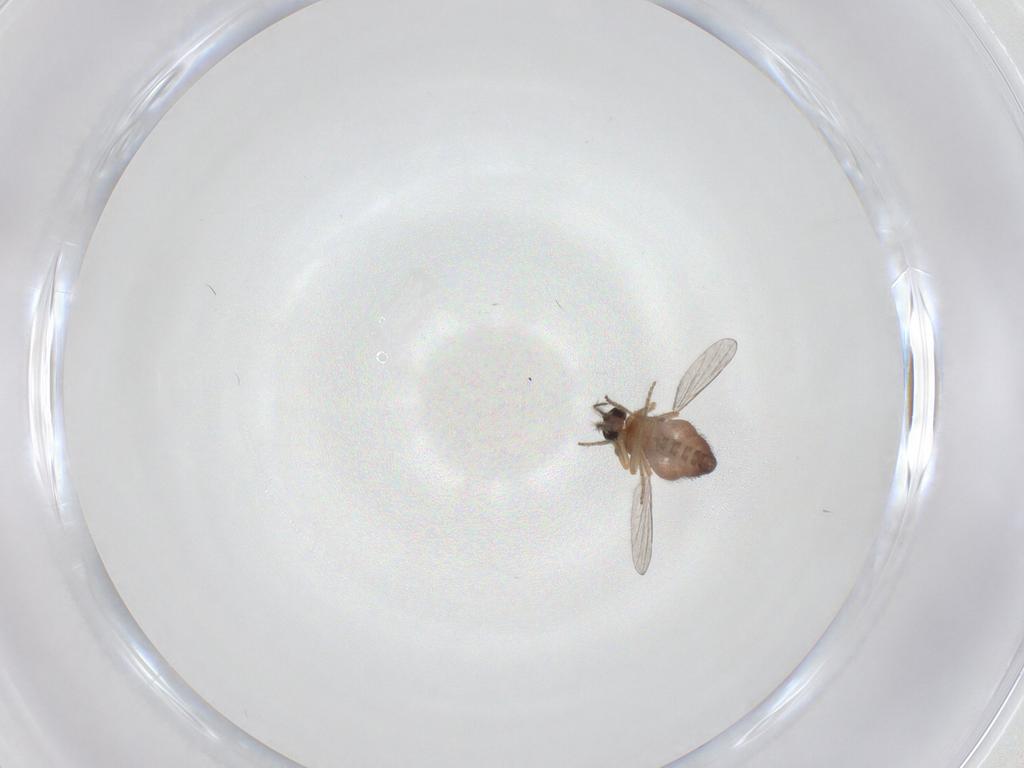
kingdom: Animalia
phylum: Arthropoda
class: Insecta
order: Diptera
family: Ceratopogonidae
